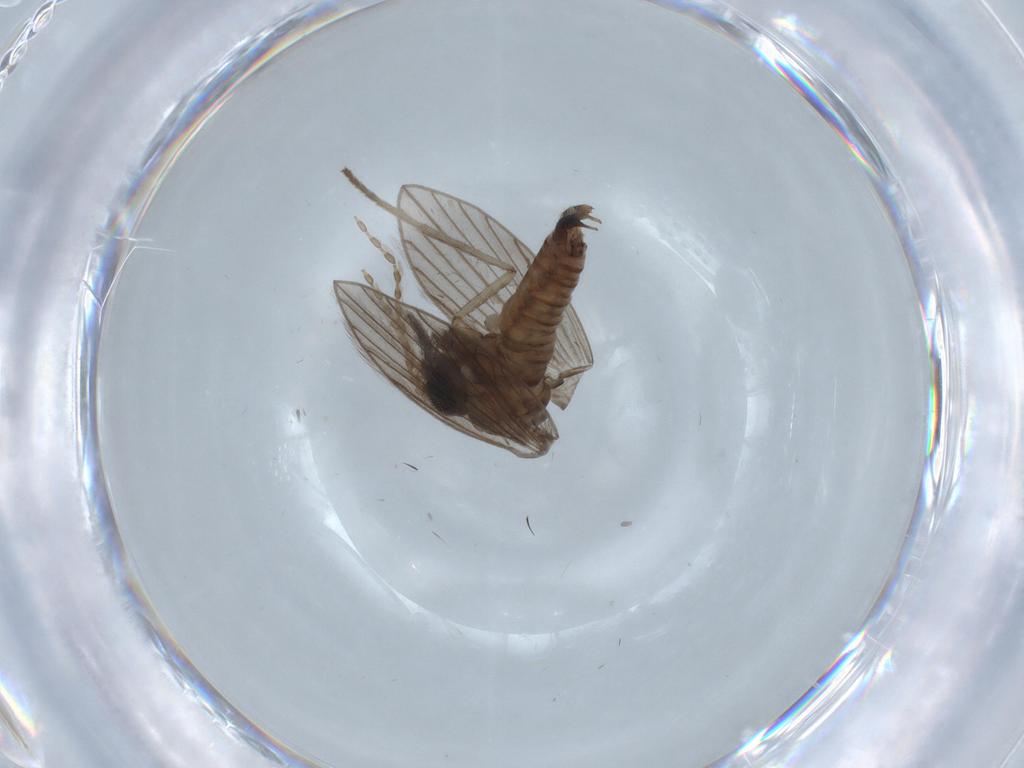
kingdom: Animalia
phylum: Arthropoda
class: Insecta
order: Diptera
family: Limoniidae
